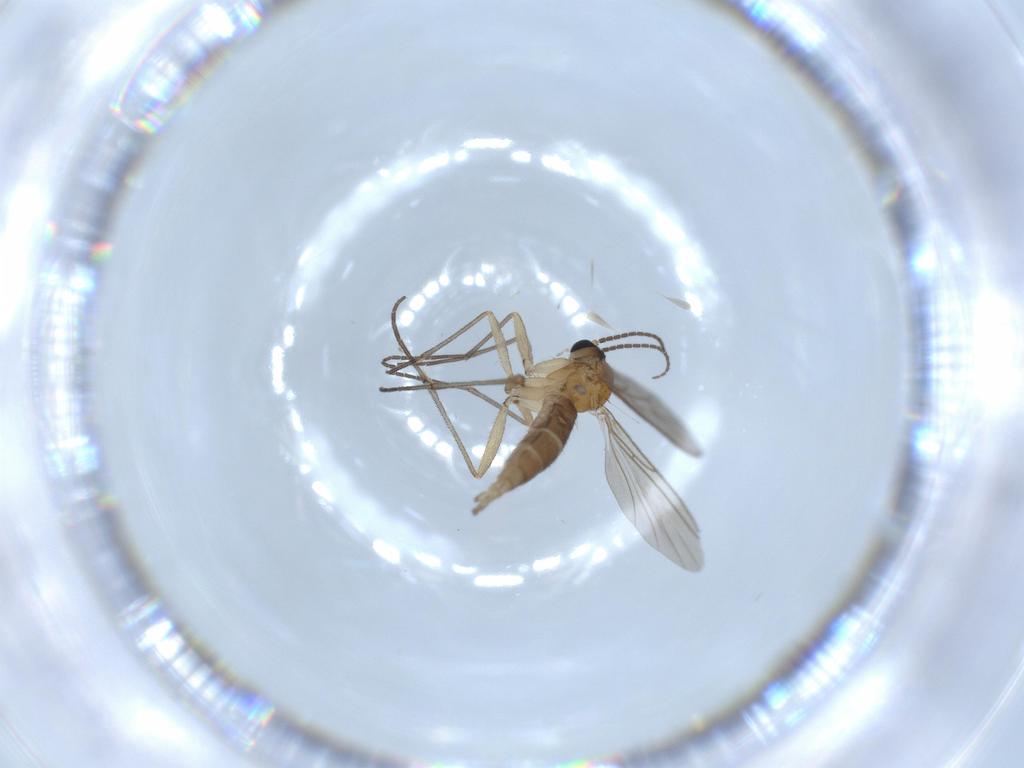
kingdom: Animalia
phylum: Arthropoda
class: Insecta
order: Diptera
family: Sciaridae
